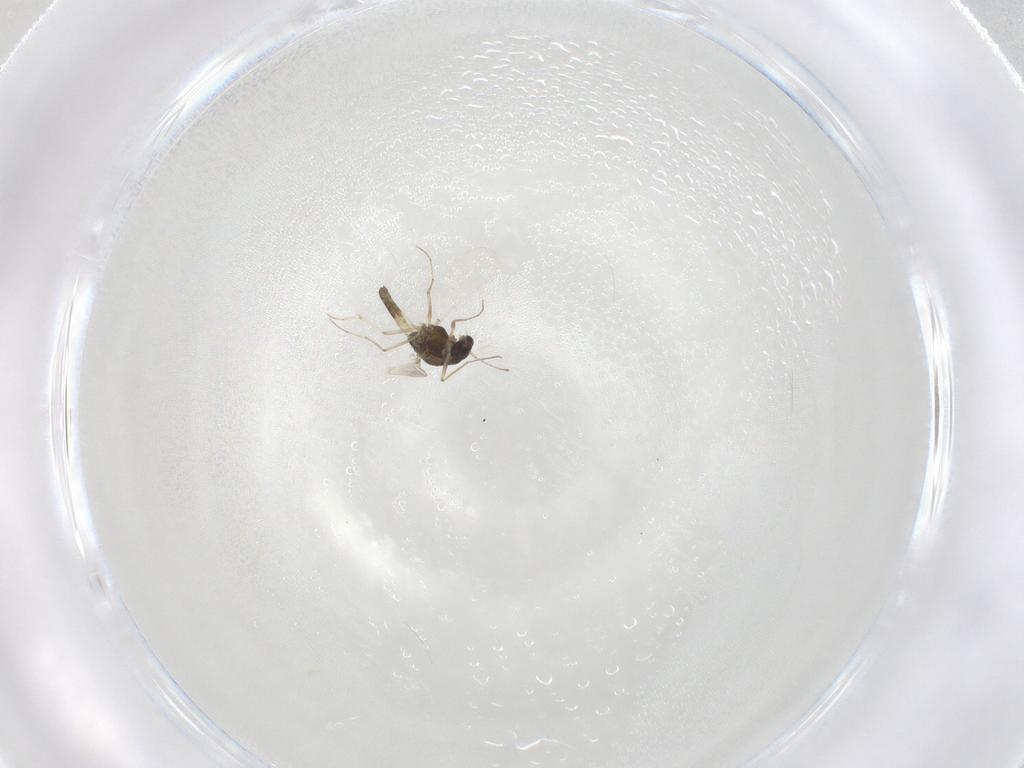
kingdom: Animalia
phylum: Arthropoda
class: Insecta
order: Diptera
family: Chironomidae
